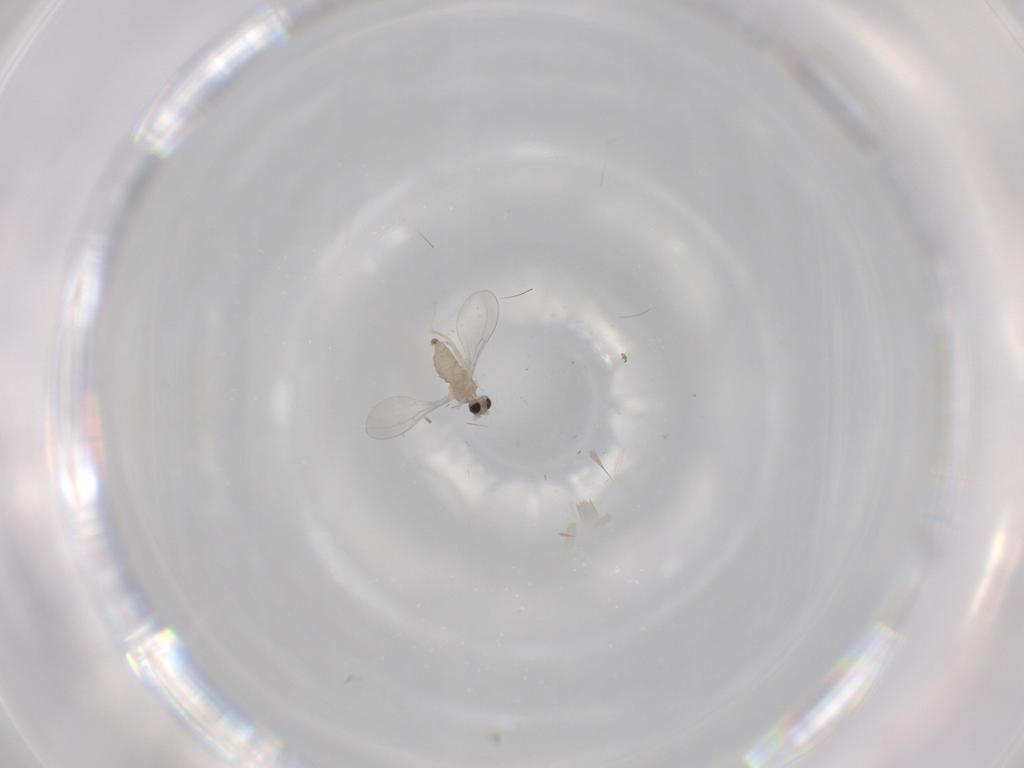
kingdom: Animalia
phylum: Arthropoda
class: Insecta
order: Diptera
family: Cecidomyiidae
